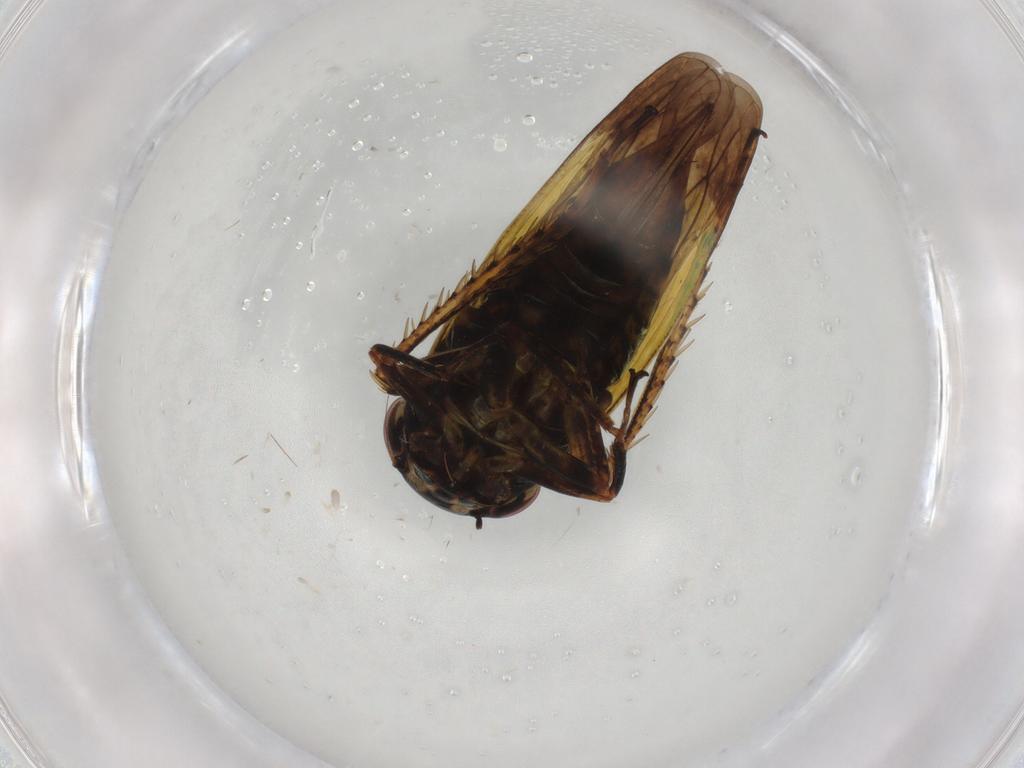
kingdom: Animalia
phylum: Arthropoda
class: Insecta
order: Hemiptera
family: Cicadellidae
